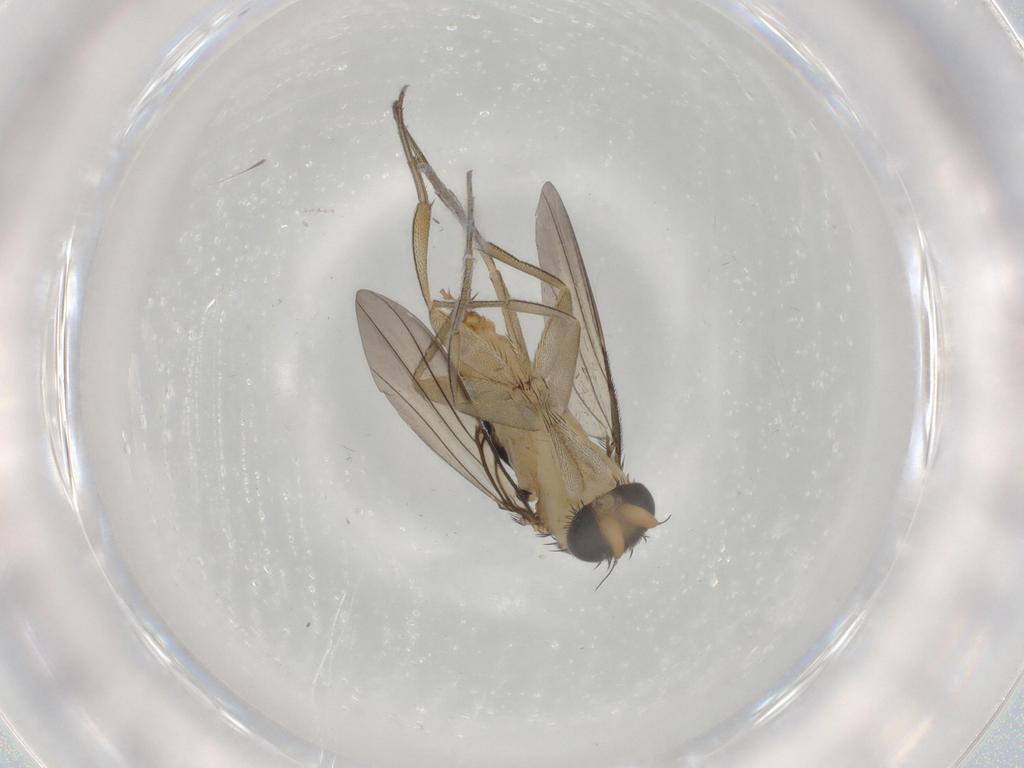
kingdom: Animalia
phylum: Arthropoda
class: Insecta
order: Diptera
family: Phoridae
